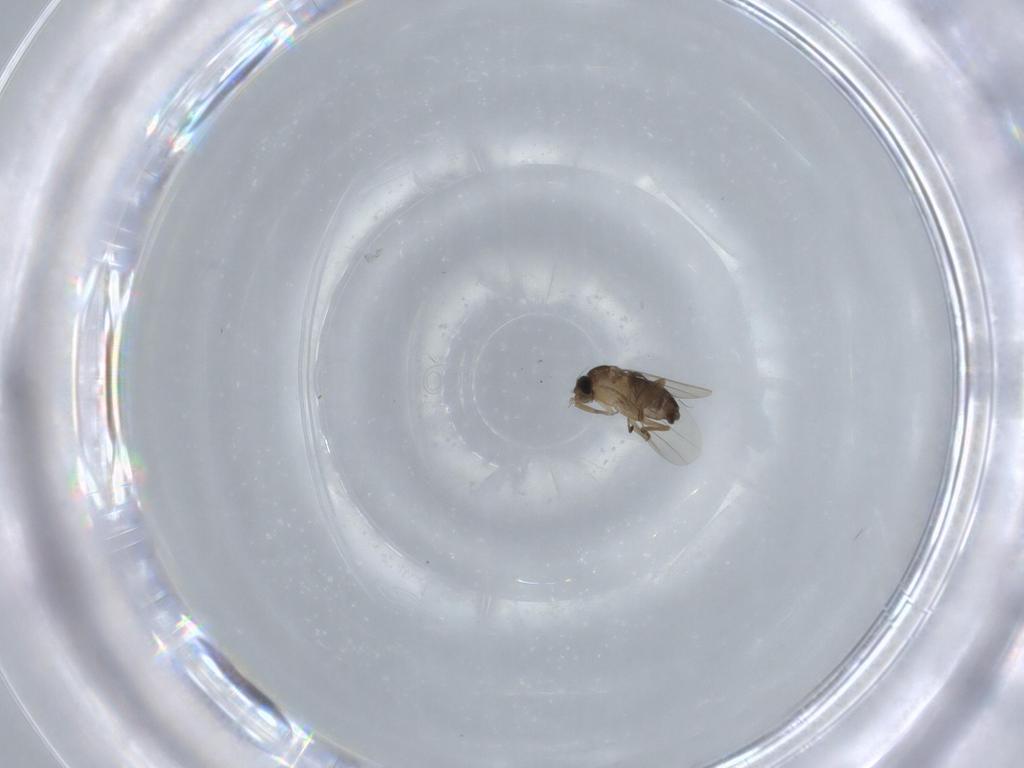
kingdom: Animalia
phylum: Arthropoda
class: Insecta
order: Diptera
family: Phoridae
